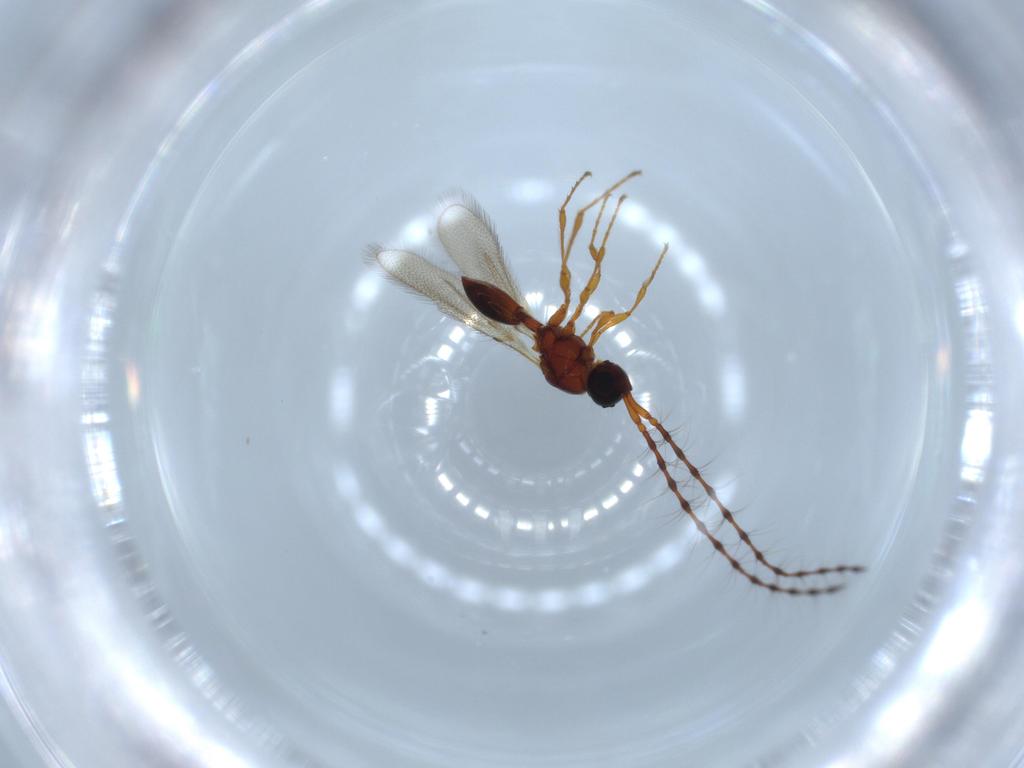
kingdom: Animalia
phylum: Arthropoda
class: Insecta
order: Hymenoptera
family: Diapriidae
